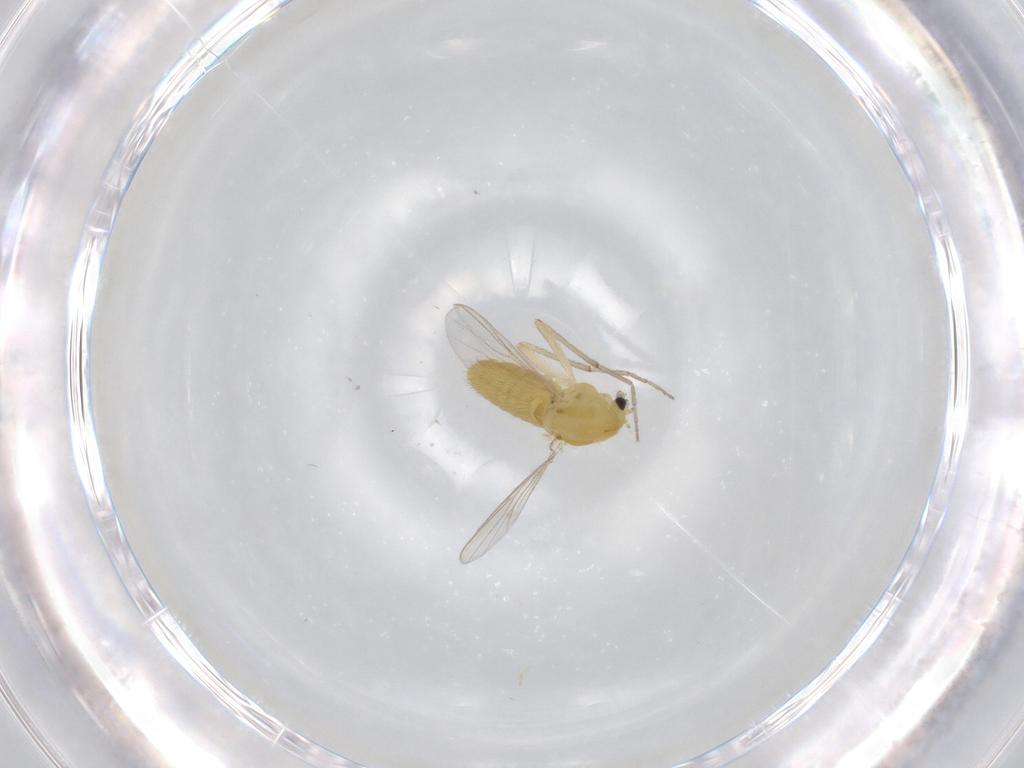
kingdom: Animalia
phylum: Arthropoda
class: Insecta
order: Diptera
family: Chironomidae
